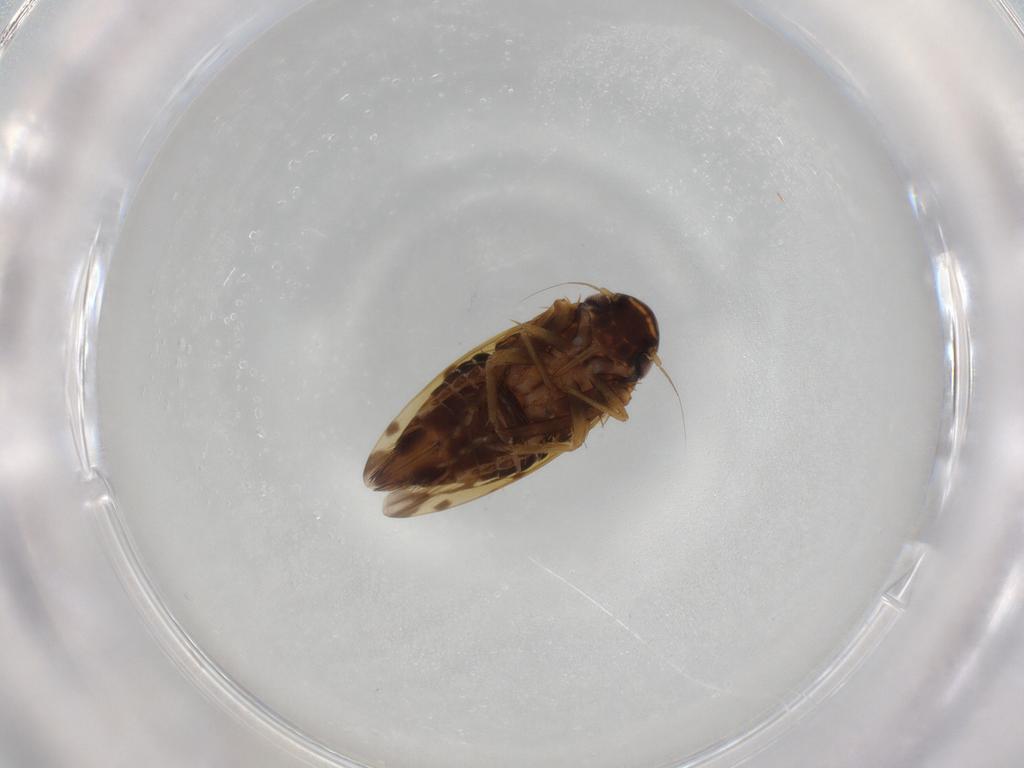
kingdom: Animalia
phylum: Arthropoda
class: Insecta
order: Hemiptera
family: Cicadellidae
